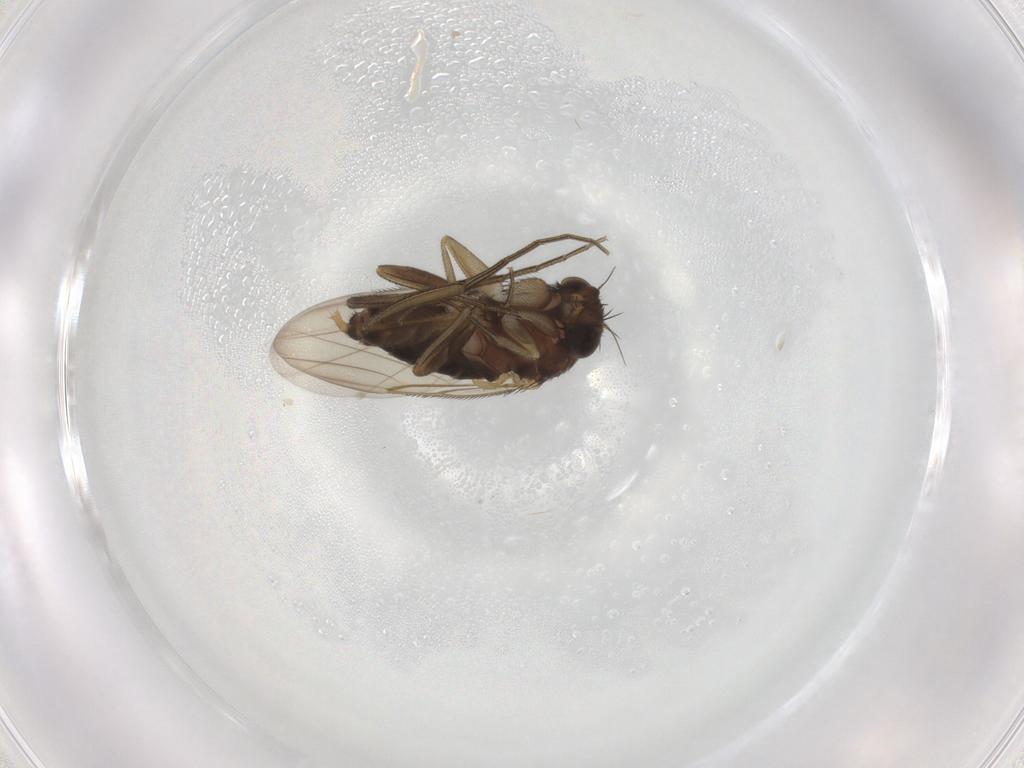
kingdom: Animalia
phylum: Arthropoda
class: Insecta
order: Diptera
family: Phoridae
